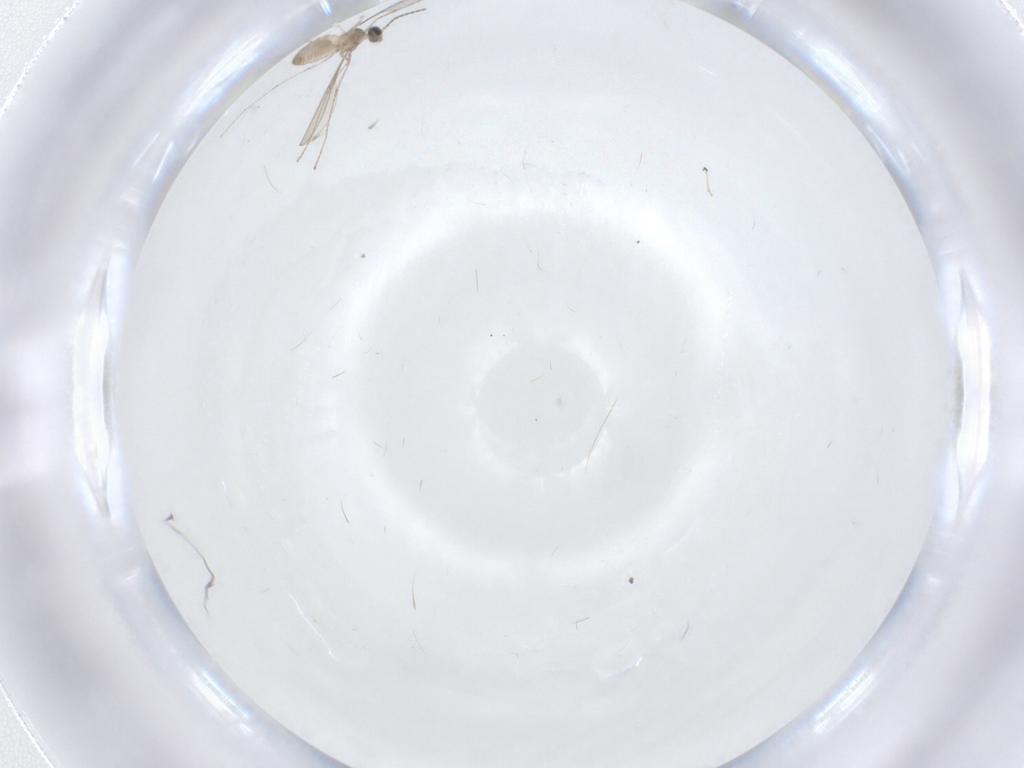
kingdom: Animalia
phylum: Arthropoda
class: Insecta
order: Diptera
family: Cecidomyiidae
